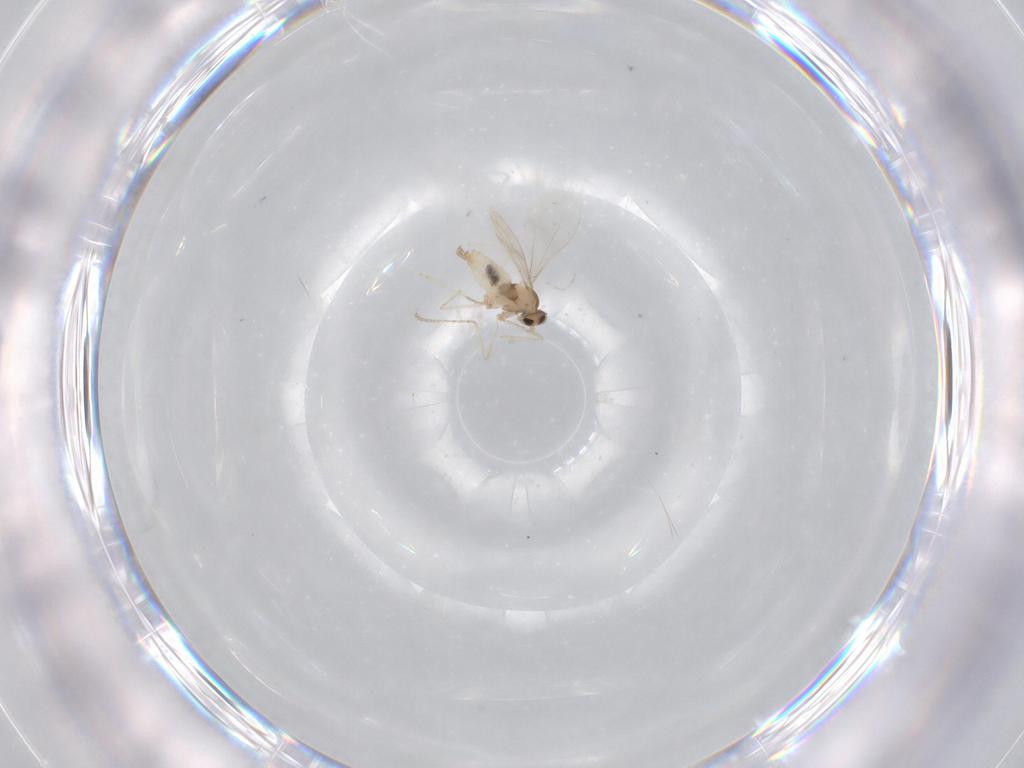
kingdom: Animalia
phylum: Arthropoda
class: Insecta
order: Diptera
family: Cecidomyiidae
